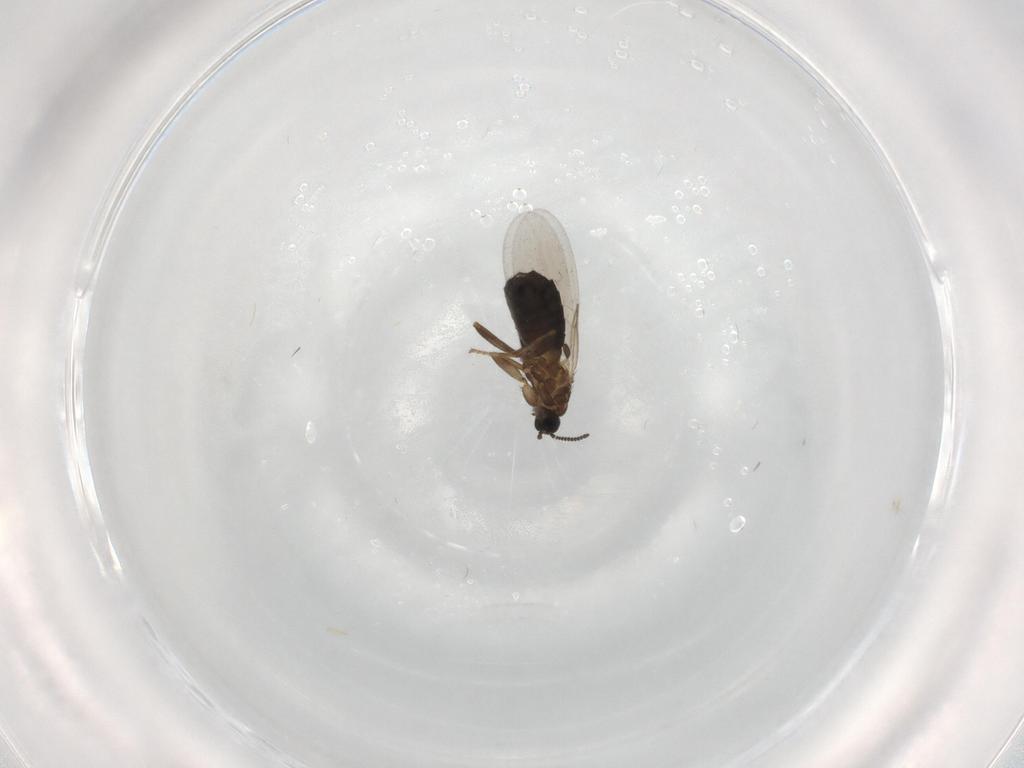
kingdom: Animalia
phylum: Arthropoda
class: Insecta
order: Diptera
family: Scatopsidae
